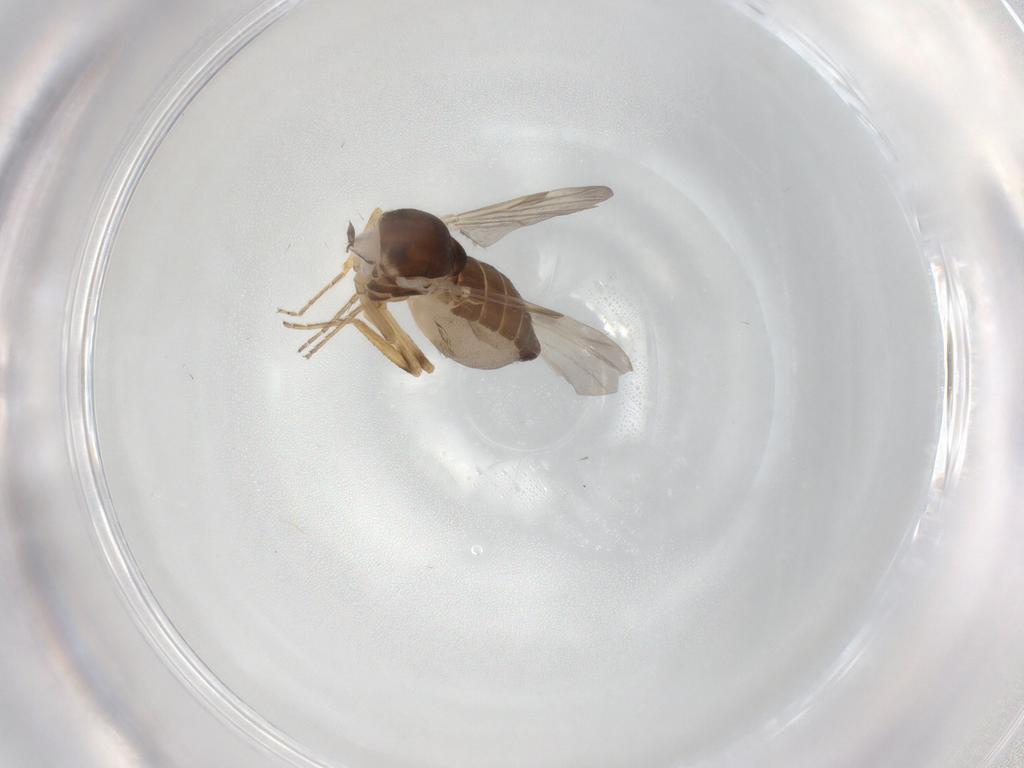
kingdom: Animalia
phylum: Arthropoda
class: Insecta
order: Diptera
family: Ceratopogonidae
